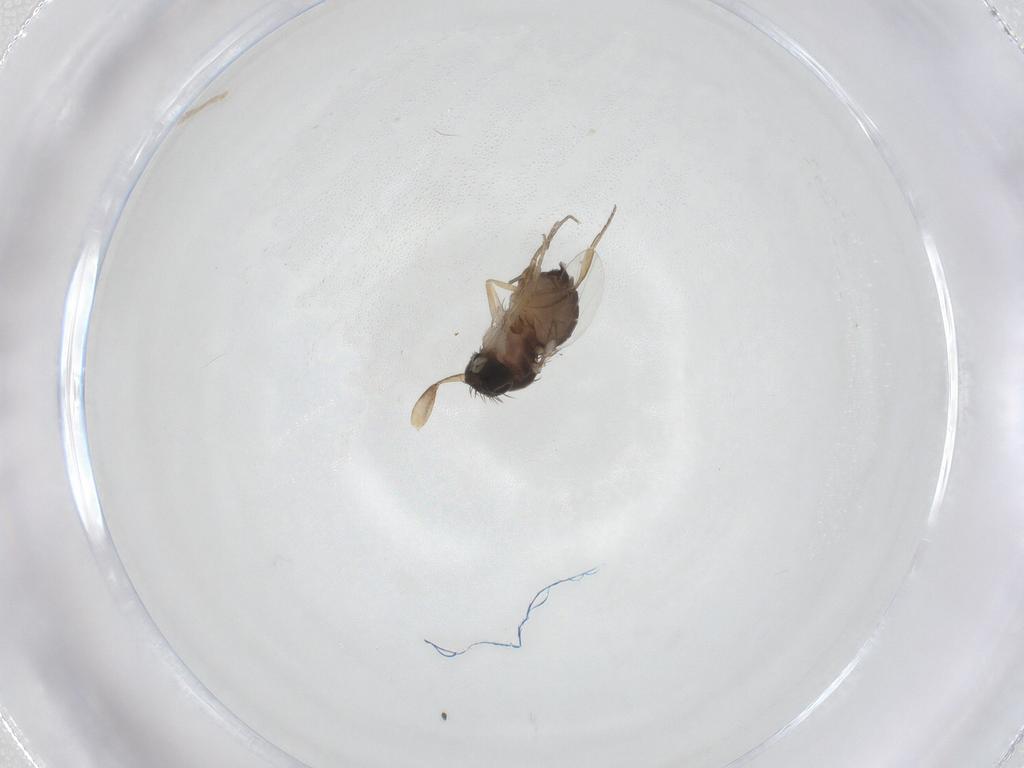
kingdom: Animalia
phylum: Arthropoda
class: Insecta
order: Diptera
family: Phoridae
